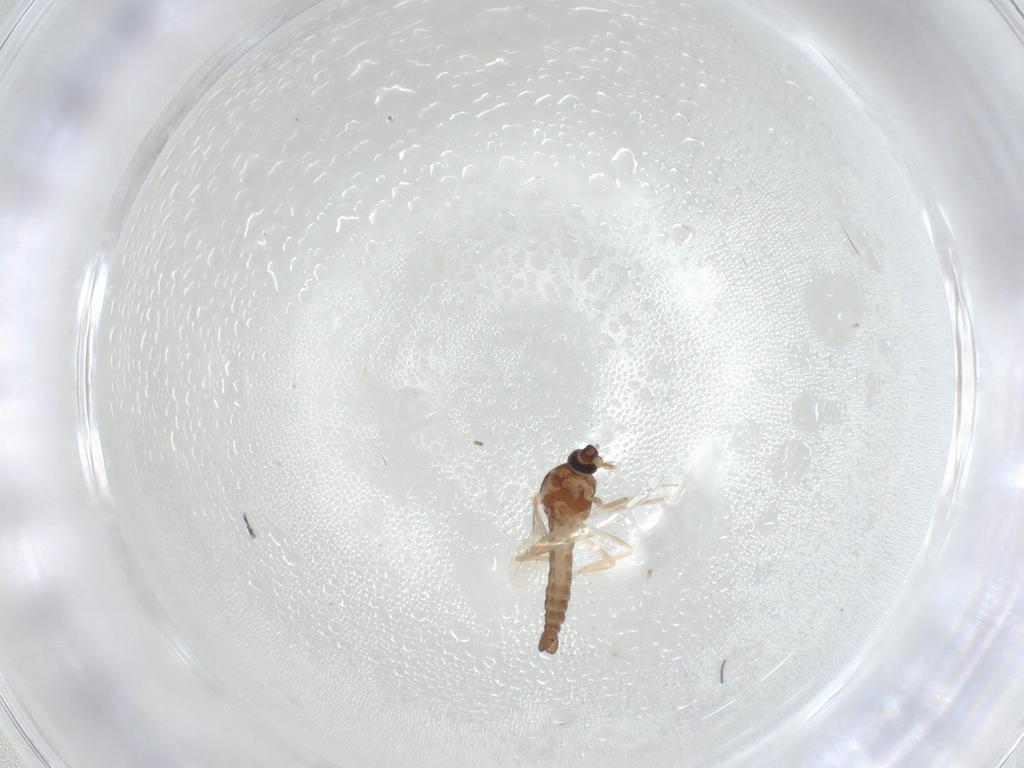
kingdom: Animalia
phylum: Arthropoda
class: Insecta
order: Diptera
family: Ceratopogonidae
